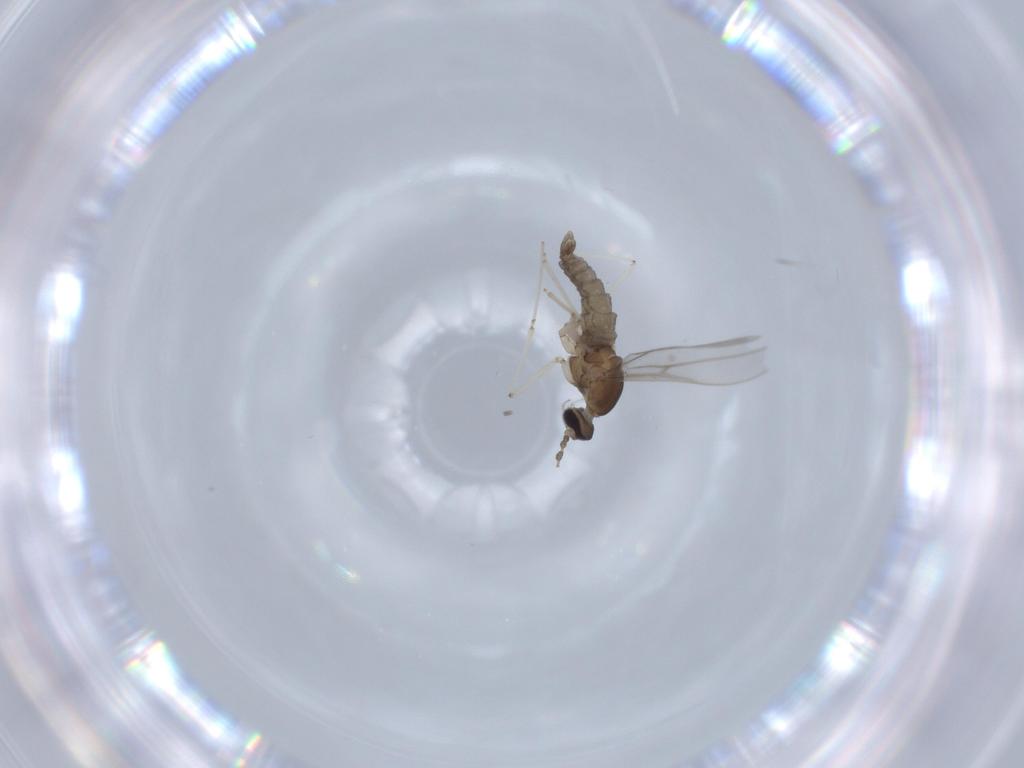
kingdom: Animalia
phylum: Arthropoda
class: Insecta
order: Diptera
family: Cecidomyiidae
